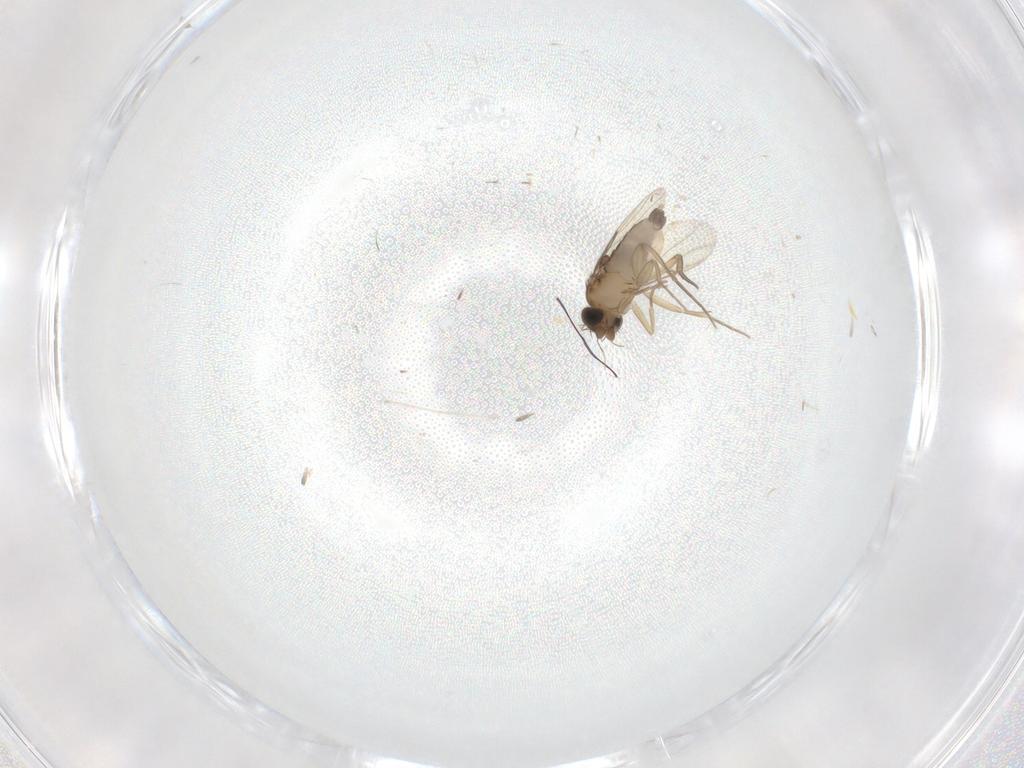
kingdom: Animalia
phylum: Arthropoda
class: Insecta
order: Diptera
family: Phoridae
